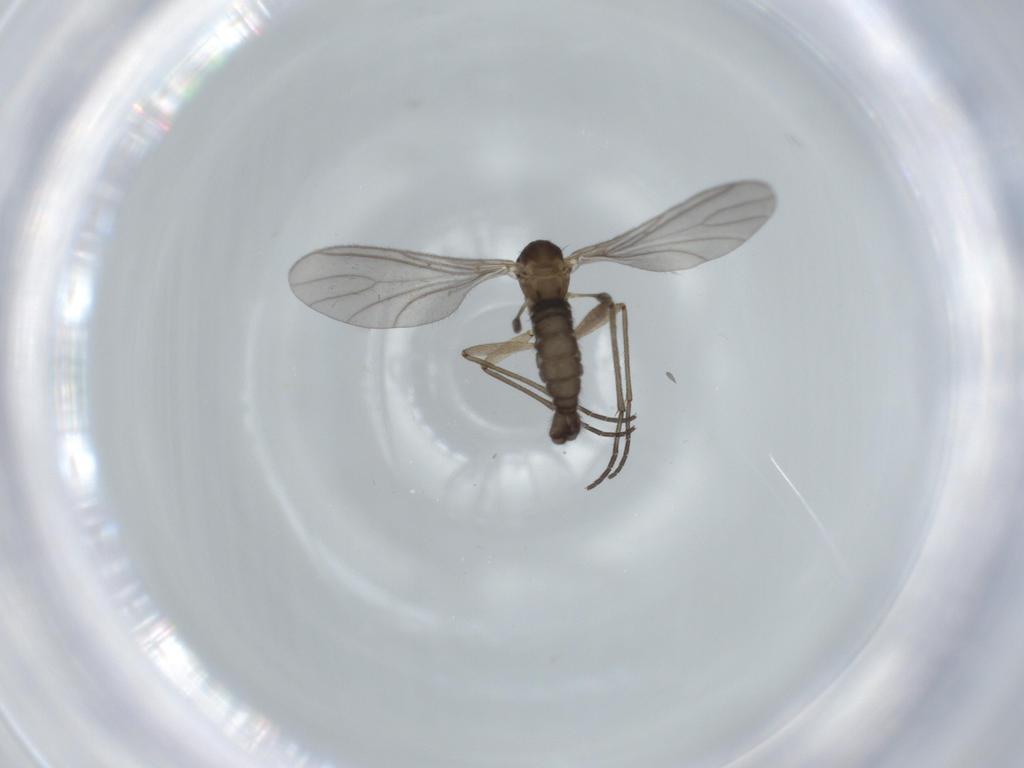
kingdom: Animalia
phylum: Arthropoda
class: Insecta
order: Diptera
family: Sciaridae
